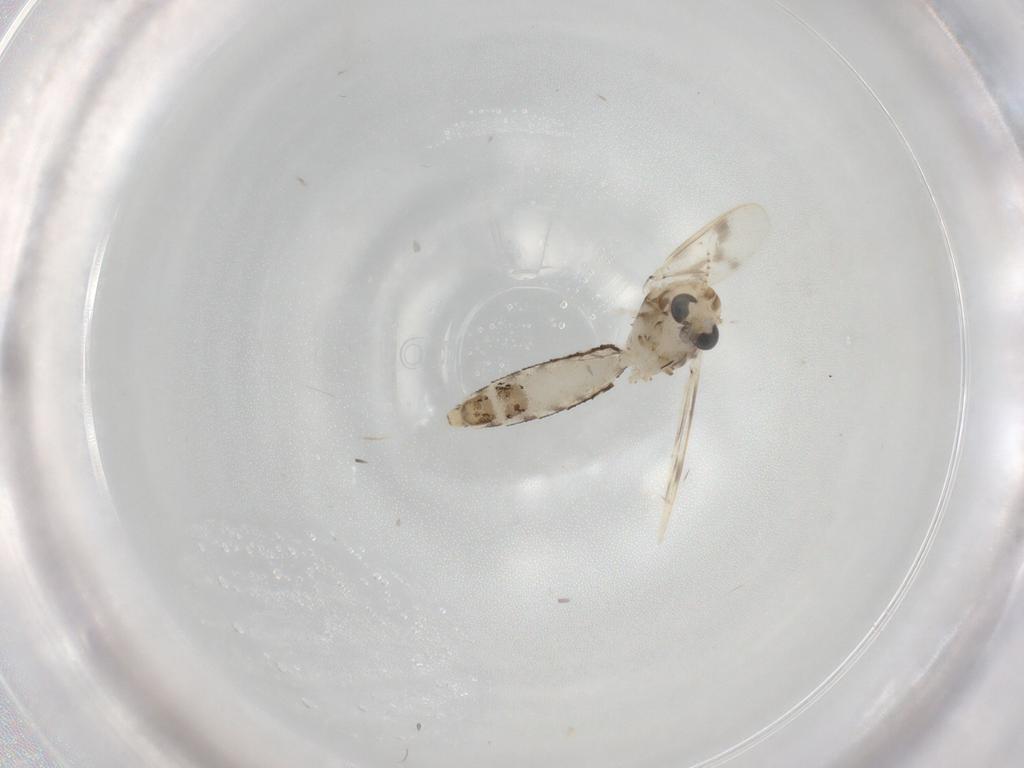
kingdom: Animalia
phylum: Arthropoda
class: Insecta
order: Diptera
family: Corethrellidae
